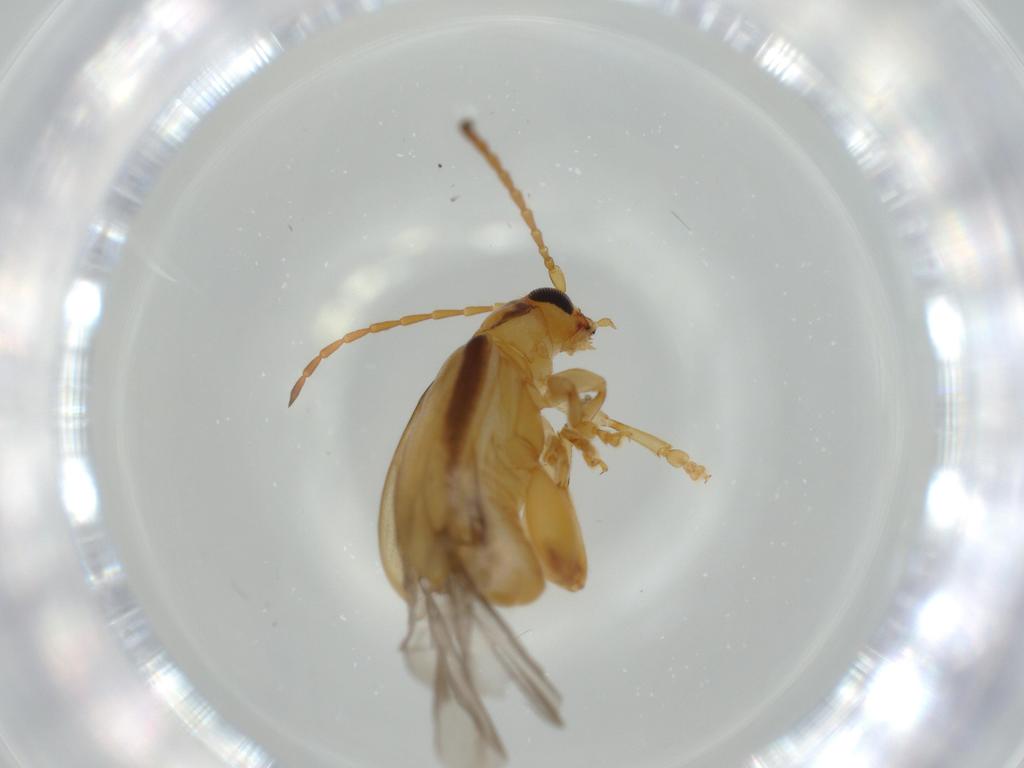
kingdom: Animalia
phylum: Arthropoda
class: Insecta
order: Coleoptera
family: Chrysomelidae
